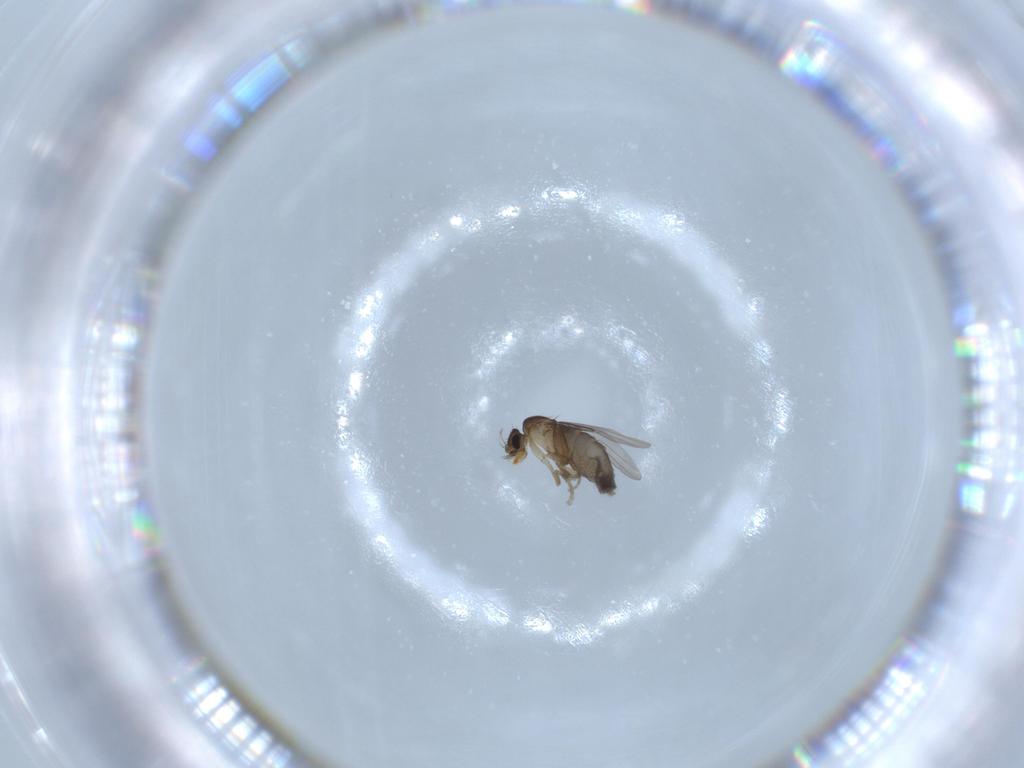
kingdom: Animalia
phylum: Arthropoda
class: Insecta
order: Diptera
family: Phoridae
